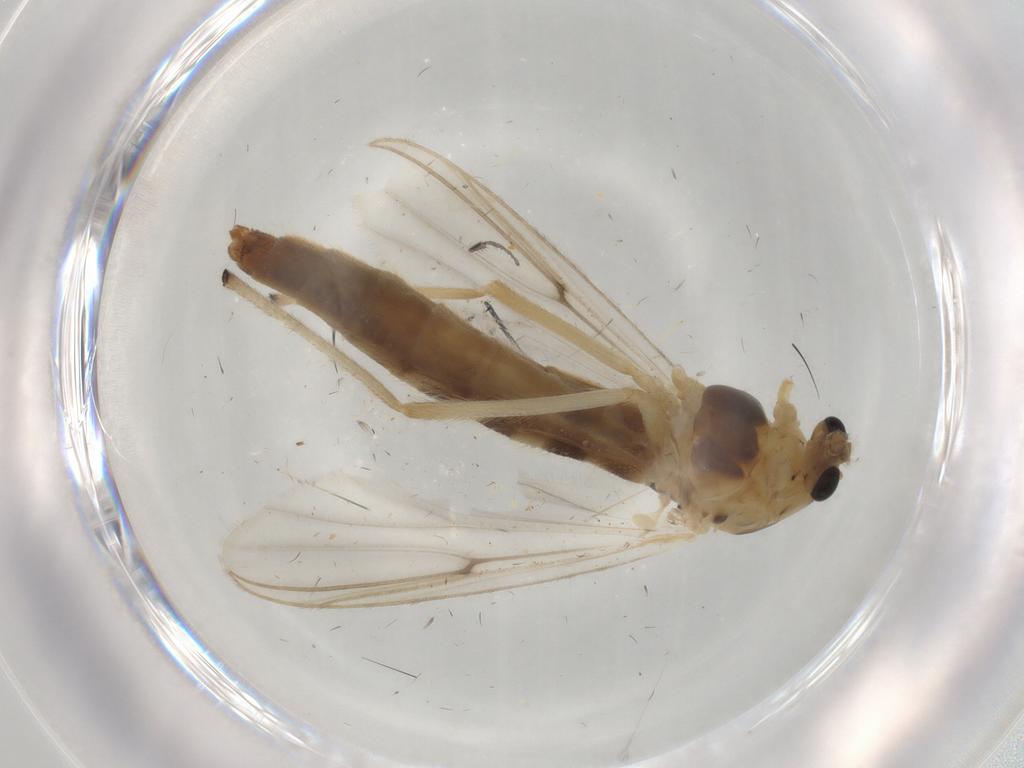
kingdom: Animalia
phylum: Arthropoda
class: Insecta
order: Diptera
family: Chironomidae
